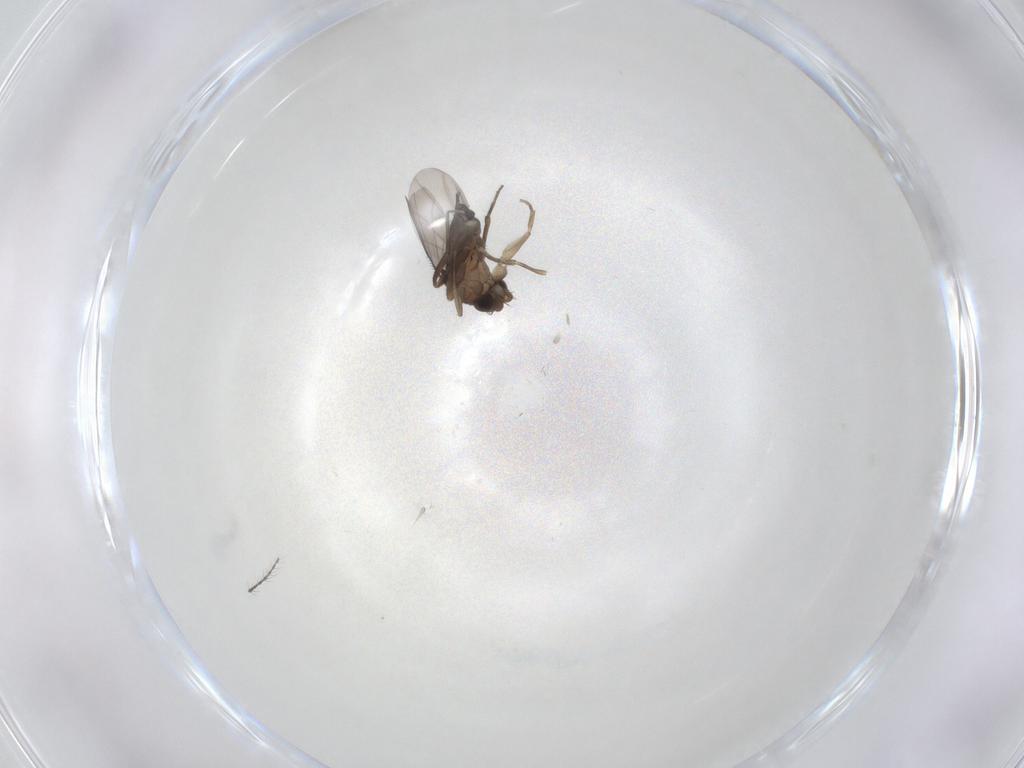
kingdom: Animalia
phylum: Arthropoda
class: Insecta
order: Diptera
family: Phoridae
